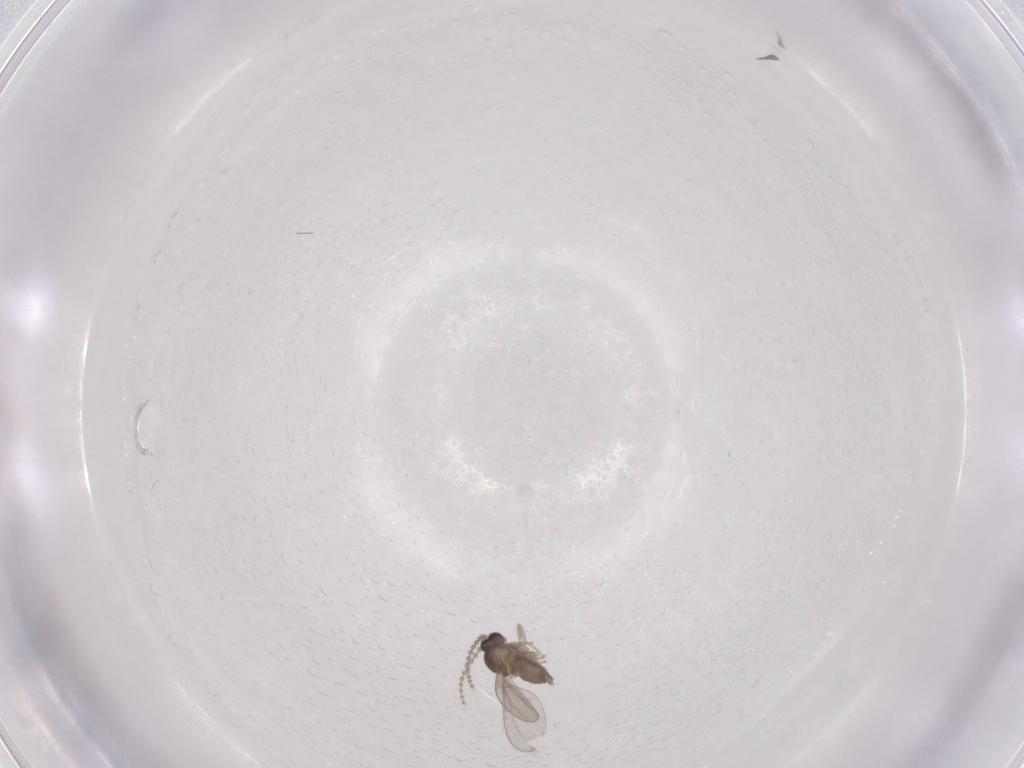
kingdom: Animalia
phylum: Arthropoda
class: Insecta
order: Diptera
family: Cecidomyiidae
